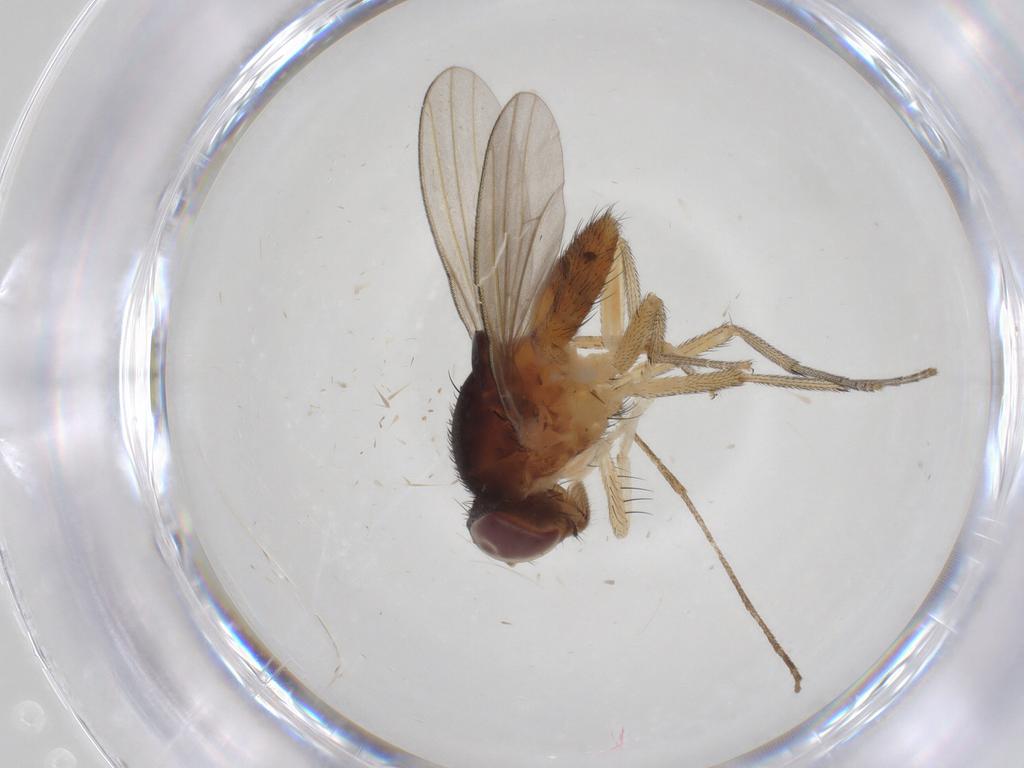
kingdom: Animalia
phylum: Arthropoda
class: Insecta
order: Diptera
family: Lauxaniidae
